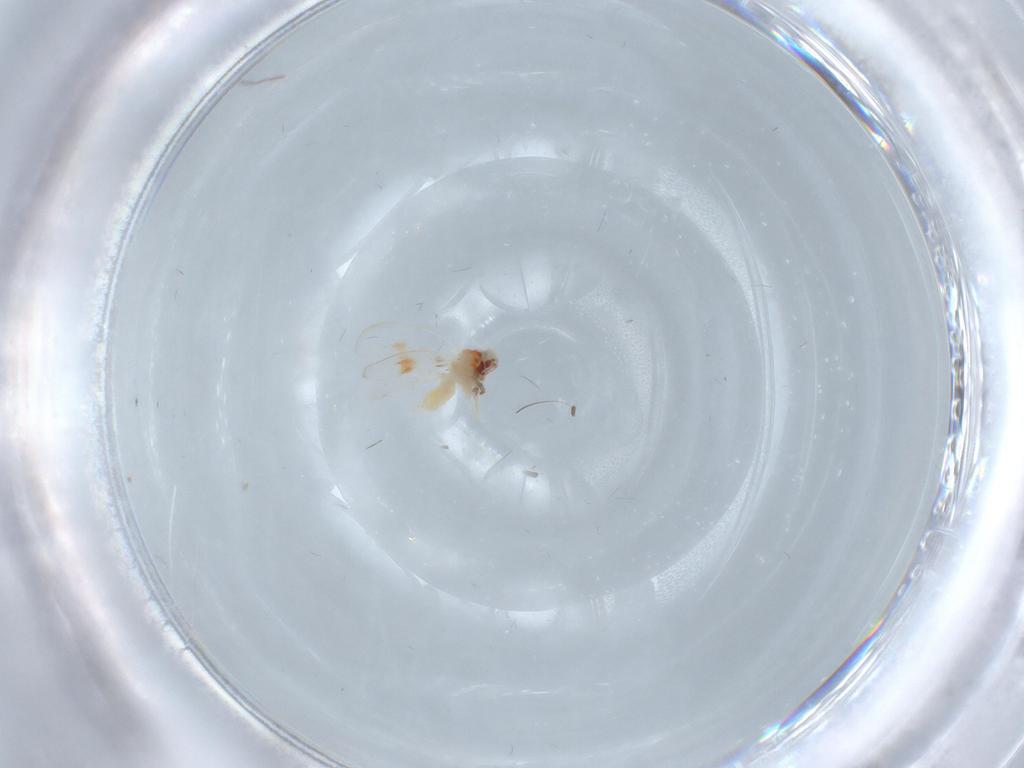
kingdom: Animalia
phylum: Arthropoda
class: Insecta
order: Hemiptera
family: Aleyrodidae
